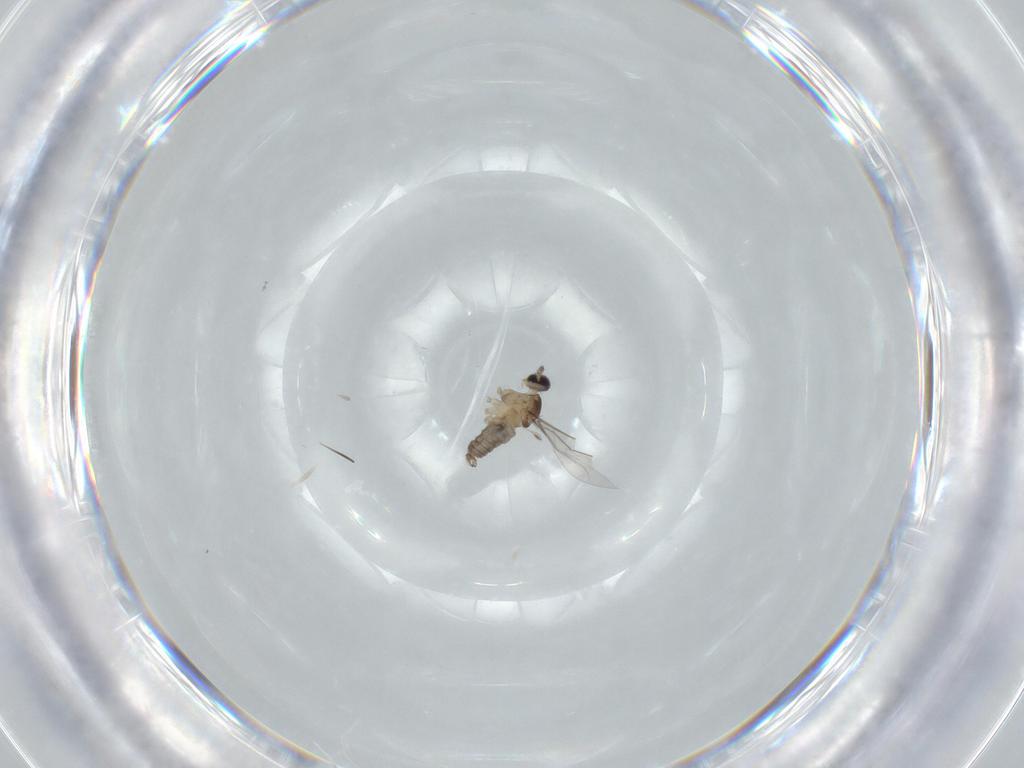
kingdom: Animalia
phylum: Arthropoda
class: Insecta
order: Diptera
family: Cecidomyiidae
